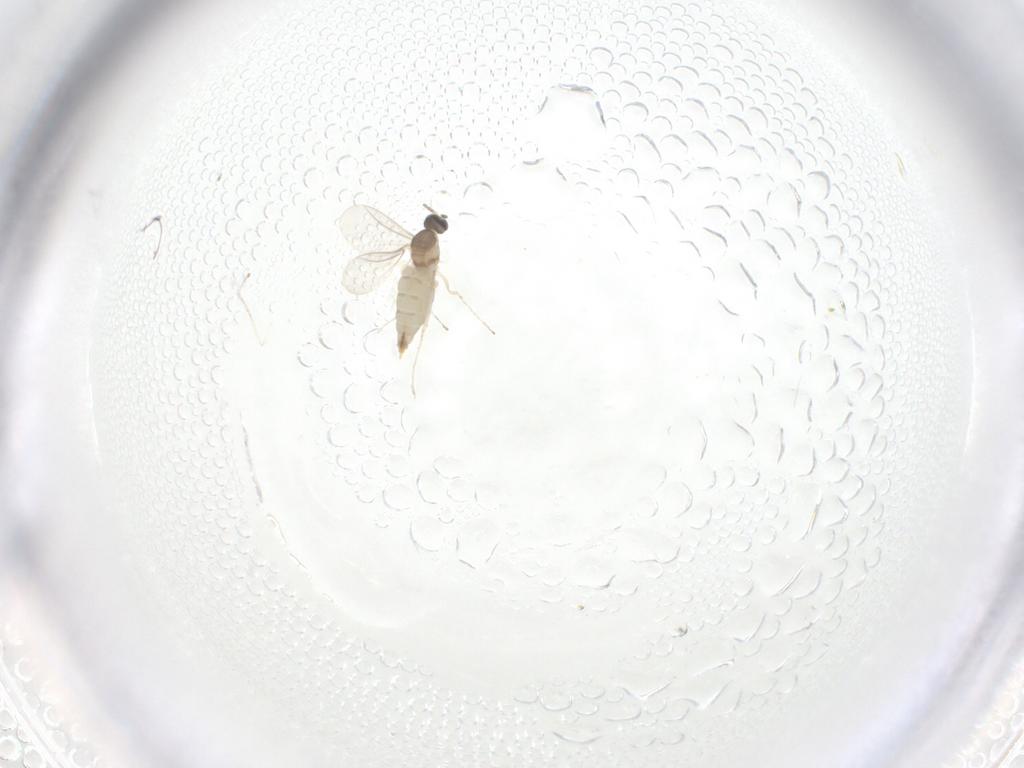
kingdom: Animalia
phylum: Arthropoda
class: Insecta
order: Diptera
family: Cecidomyiidae
